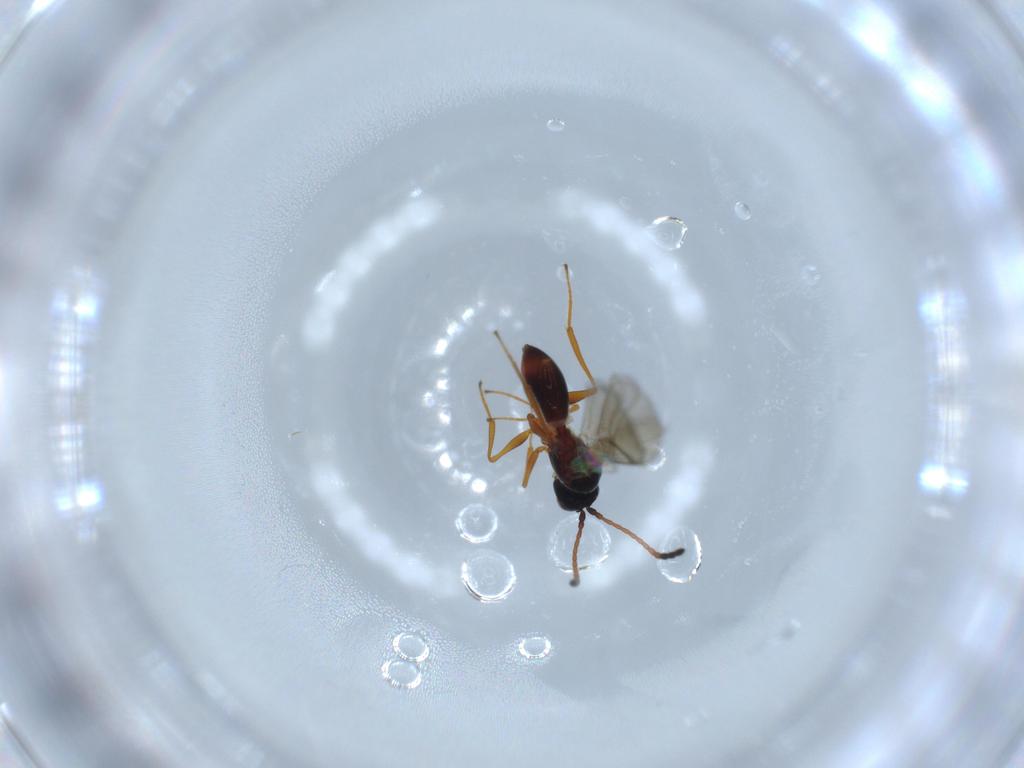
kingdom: Animalia
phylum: Arthropoda
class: Insecta
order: Hymenoptera
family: Figitidae
